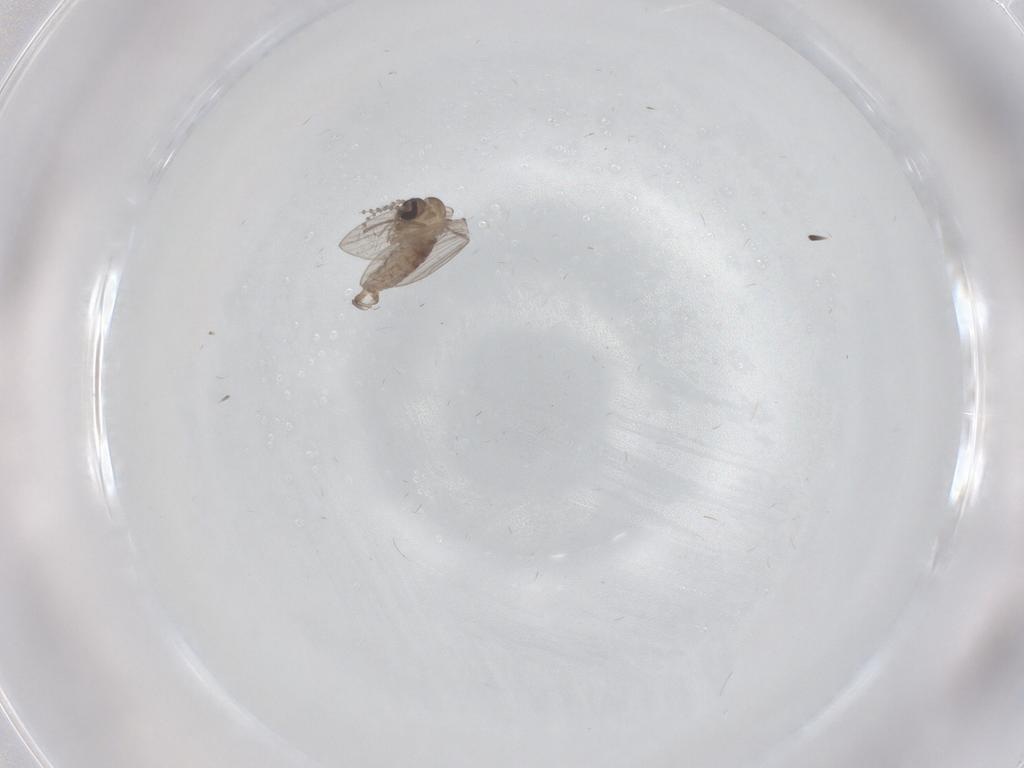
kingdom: Animalia
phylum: Arthropoda
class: Insecta
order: Diptera
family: Psychodidae
